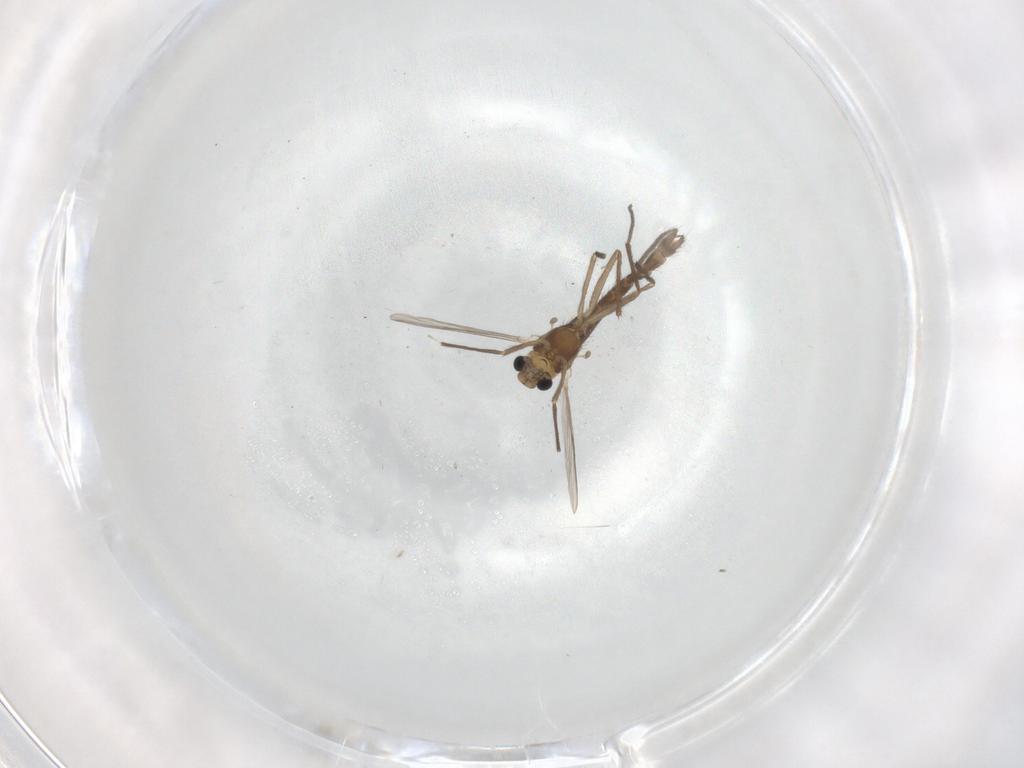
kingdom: Animalia
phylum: Arthropoda
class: Insecta
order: Diptera
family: Chironomidae
